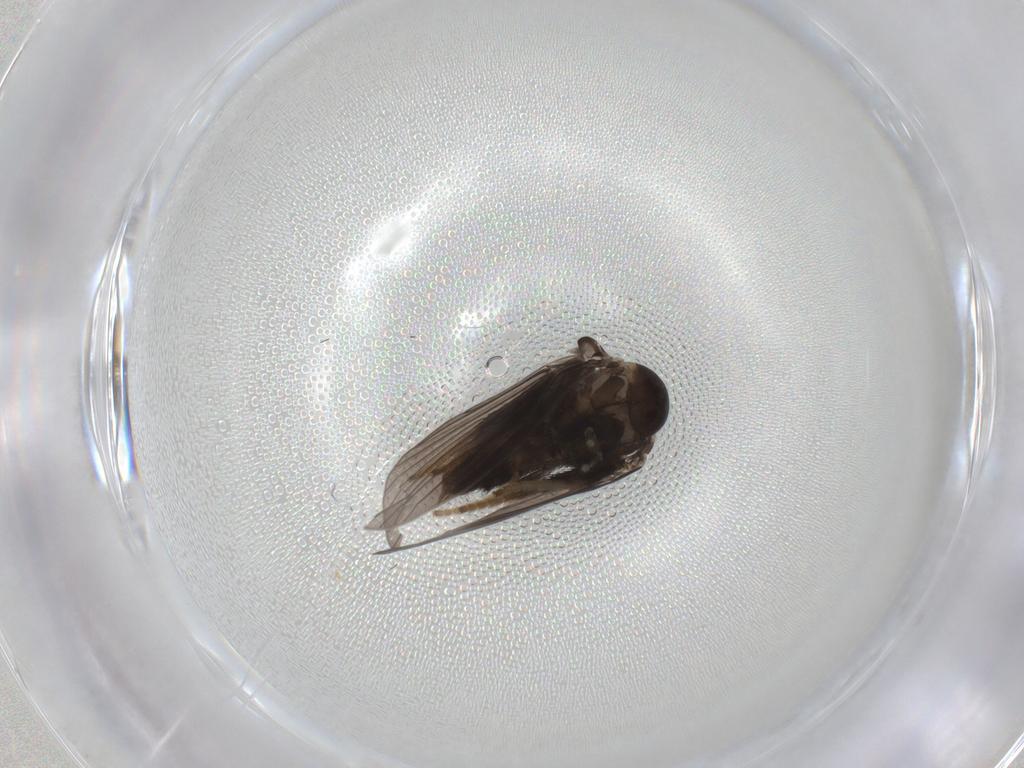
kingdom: Animalia
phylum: Arthropoda
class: Insecta
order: Diptera
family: Psychodidae
